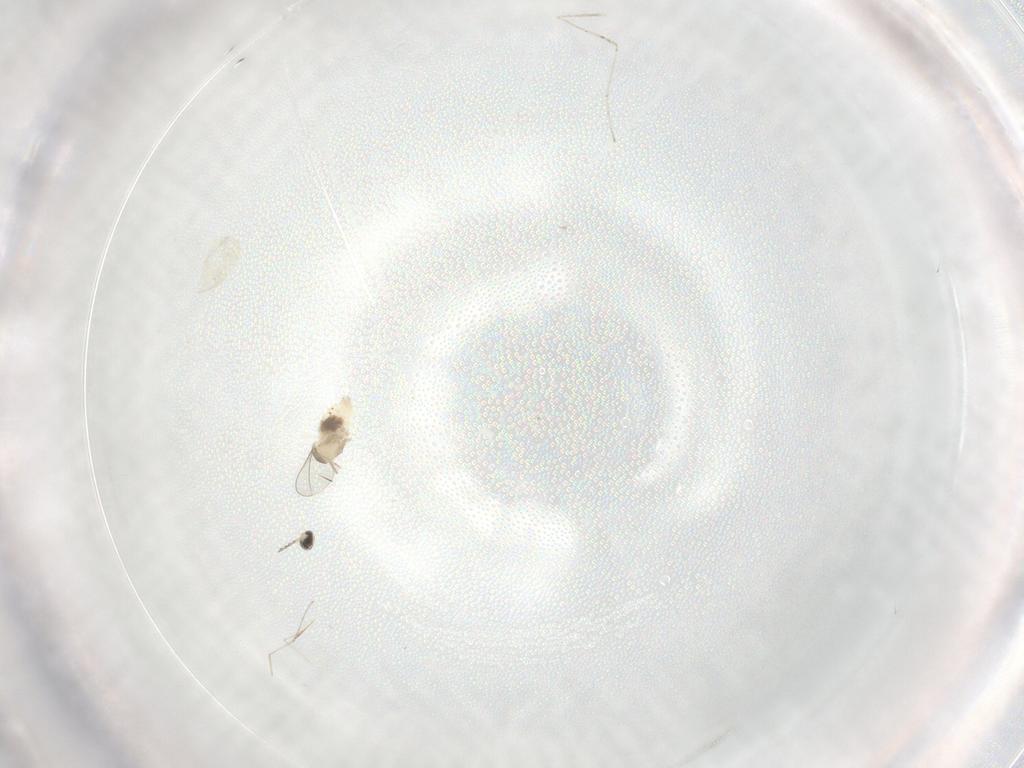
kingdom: Animalia
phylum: Arthropoda
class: Insecta
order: Diptera
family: Cecidomyiidae
